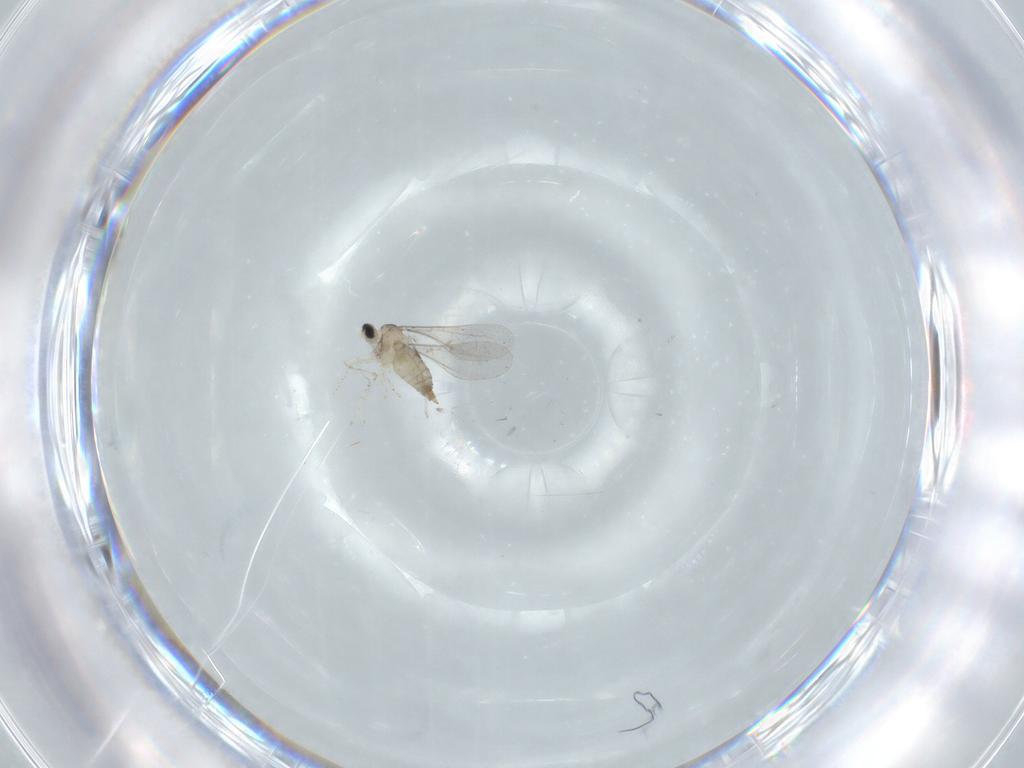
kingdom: Animalia
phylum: Arthropoda
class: Insecta
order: Diptera
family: Cecidomyiidae
